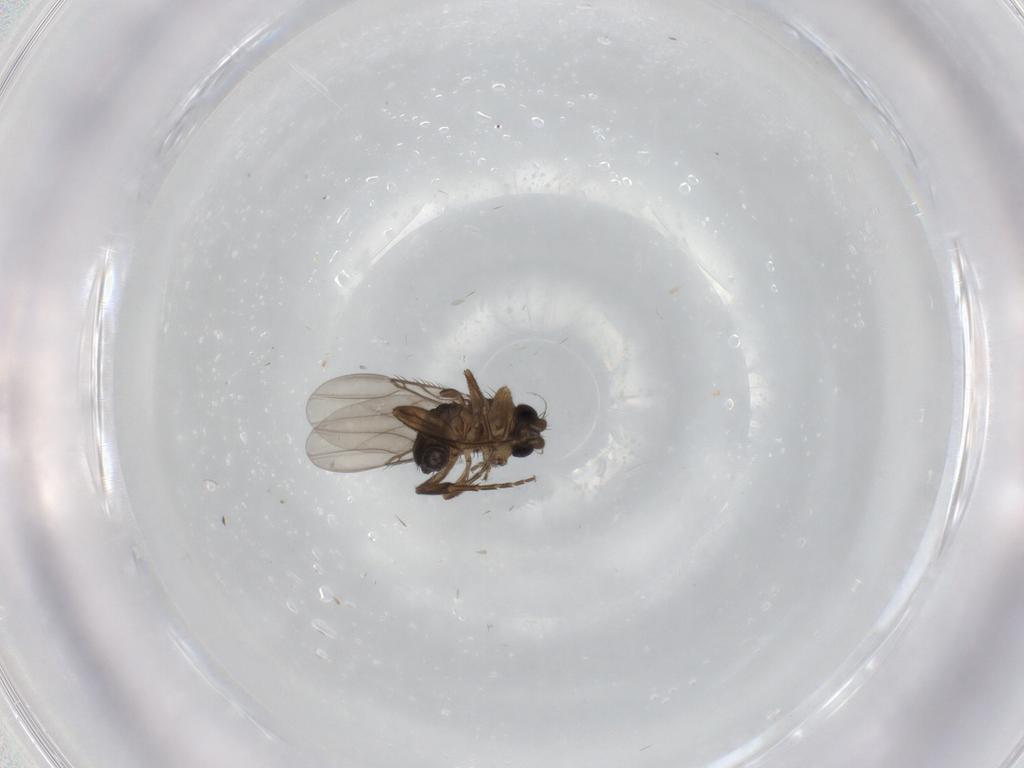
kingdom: Animalia
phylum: Arthropoda
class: Insecta
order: Diptera
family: Phoridae
